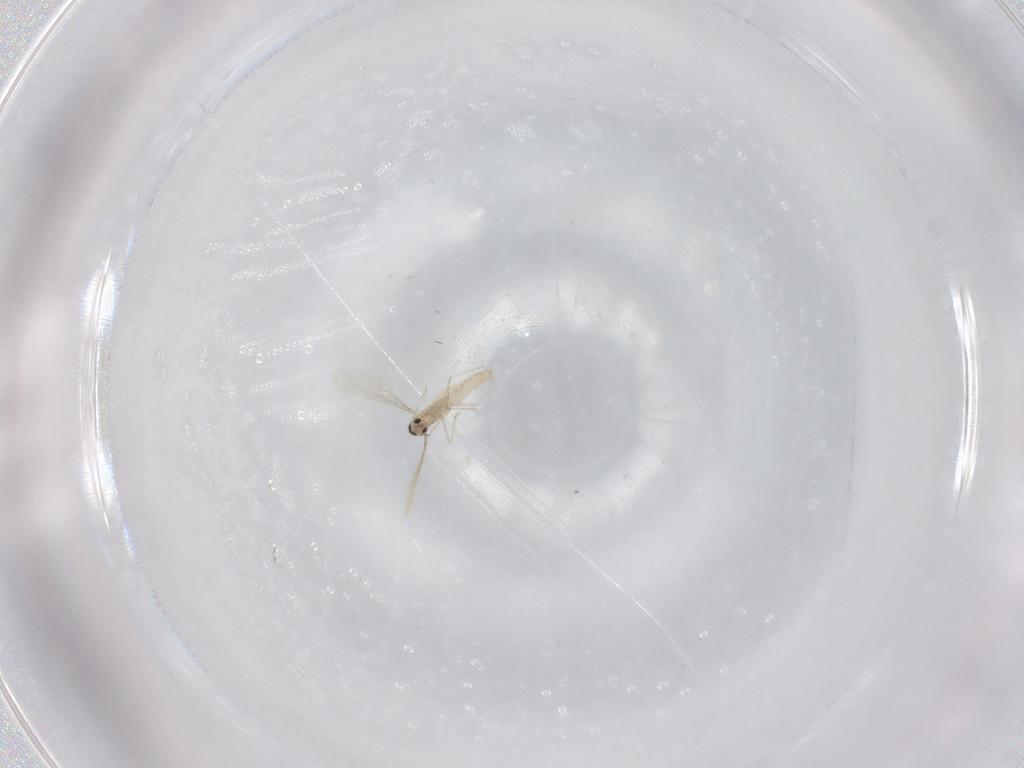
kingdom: Animalia
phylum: Arthropoda
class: Insecta
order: Diptera
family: Cecidomyiidae
